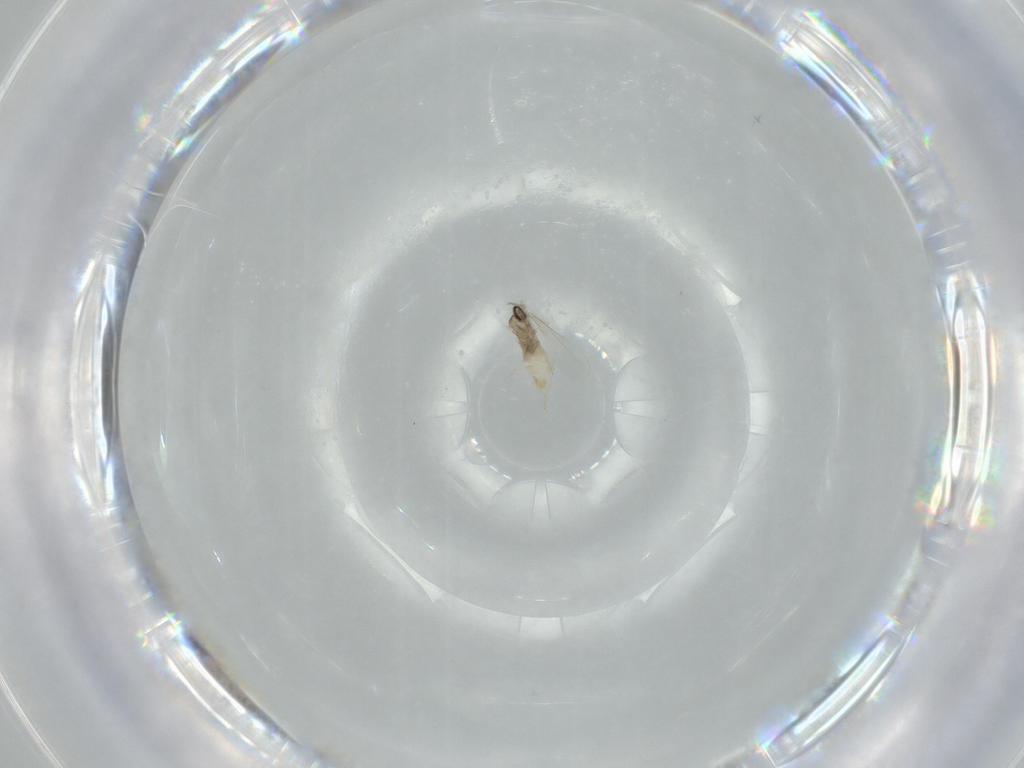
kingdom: Animalia
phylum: Arthropoda
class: Insecta
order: Diptera
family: Cecidomyiidae
